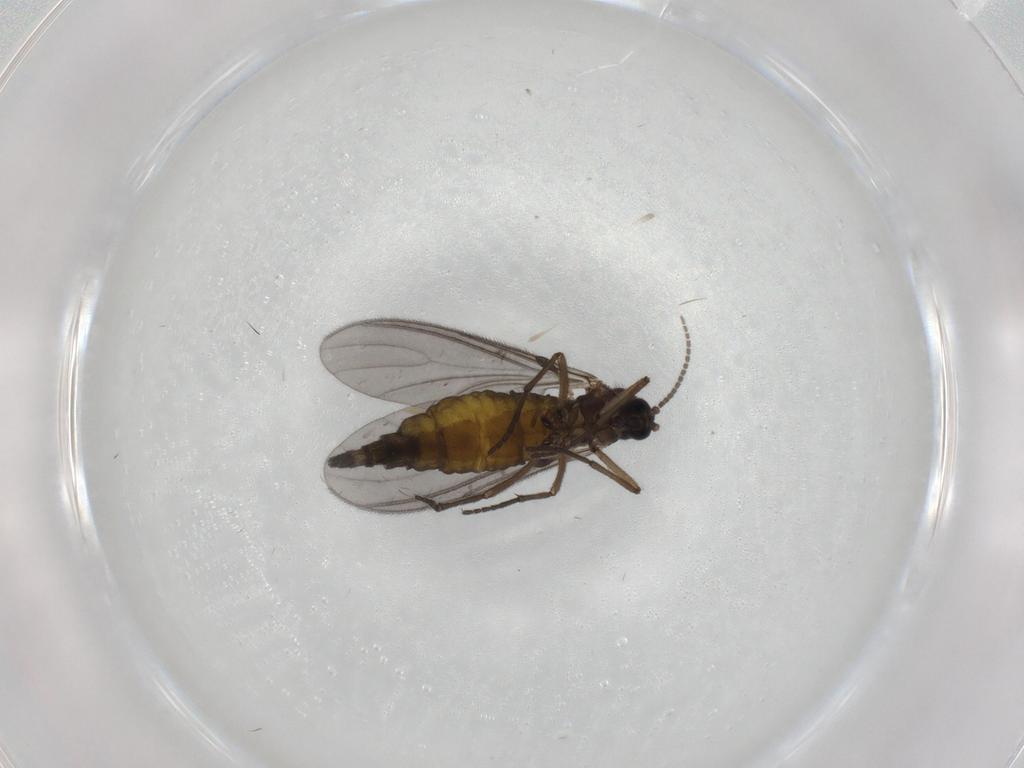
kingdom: Animalia
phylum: Arthropoda
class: Insecta
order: Diptera
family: Sciaridae
